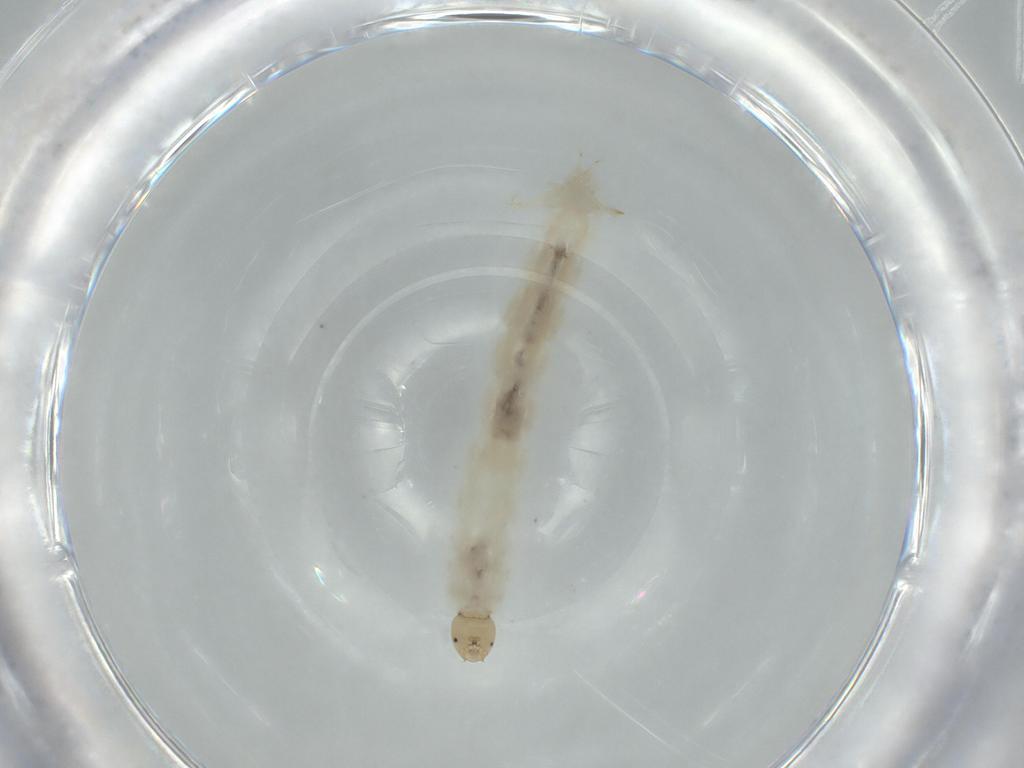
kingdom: Animalia
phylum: Arthropoda
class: Insecta
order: Diptera
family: Chironomidae
